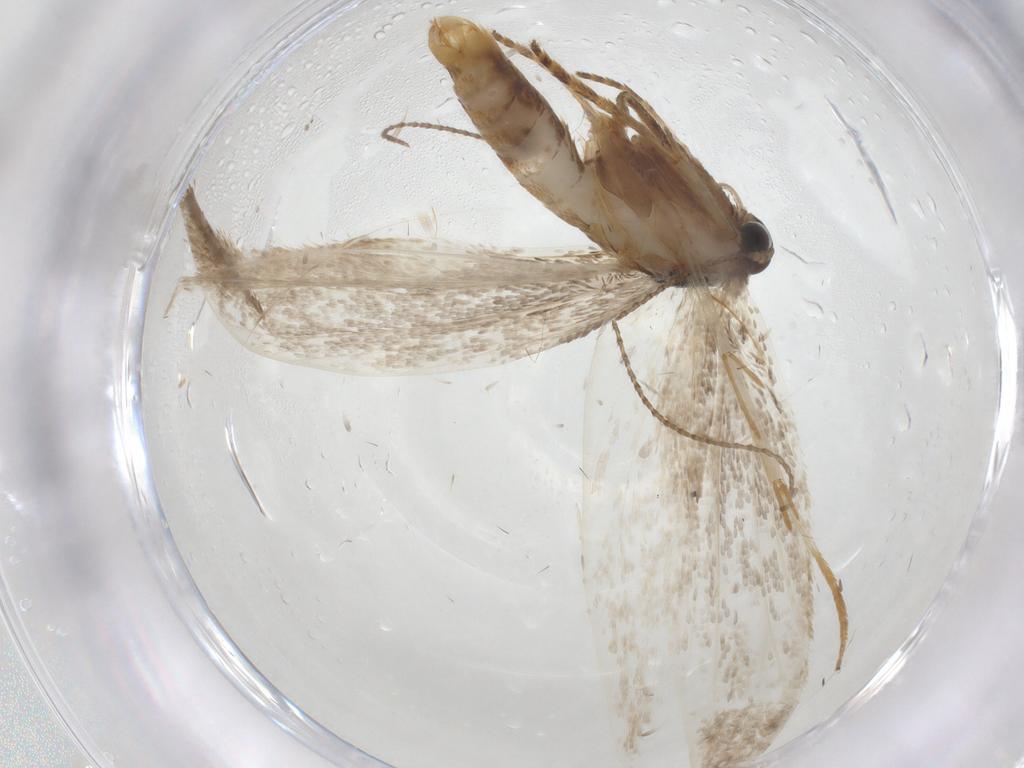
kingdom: Animalia
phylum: Arthropoda
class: Insecta
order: Lepidoptera
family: Erebidae
